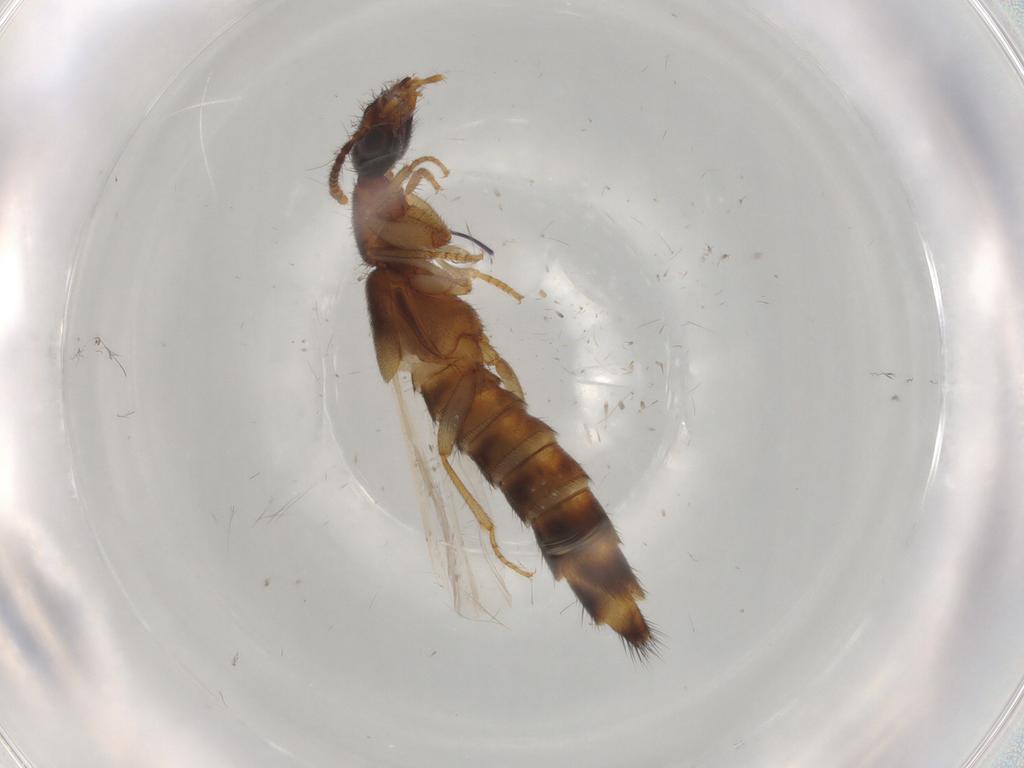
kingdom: Animalia
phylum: Arthropoda
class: Insecta
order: Coleoptera
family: Staphylinidae
